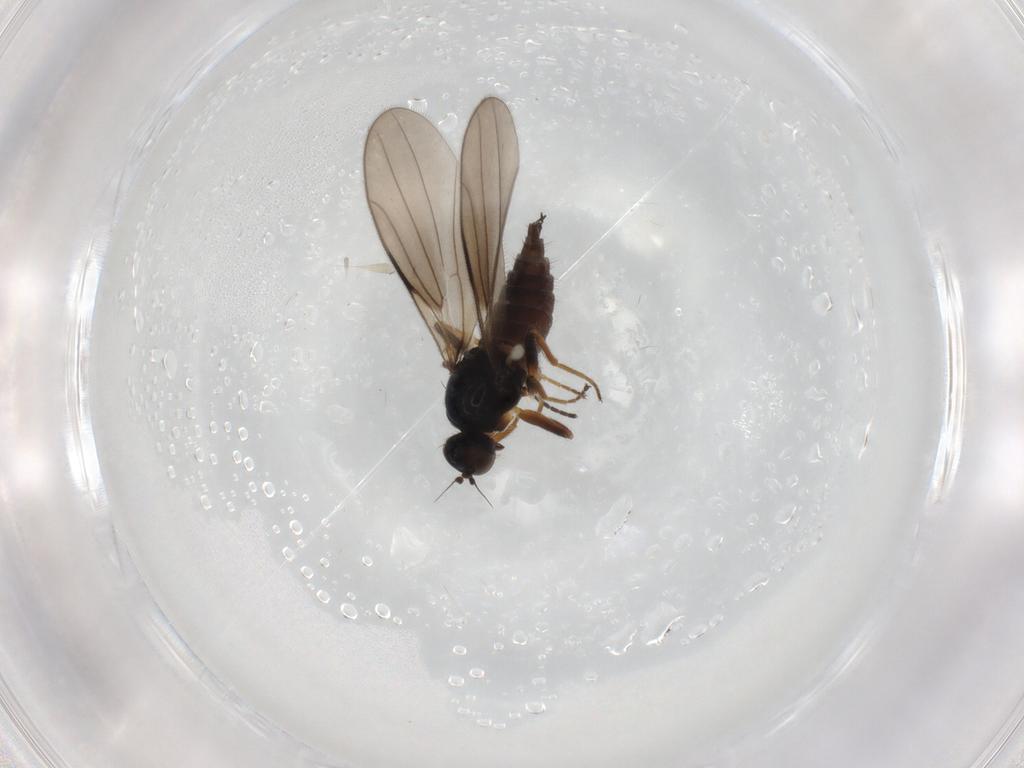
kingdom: Animalia
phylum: Arthropoda
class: Insecta
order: Diptera
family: Hybotidae
